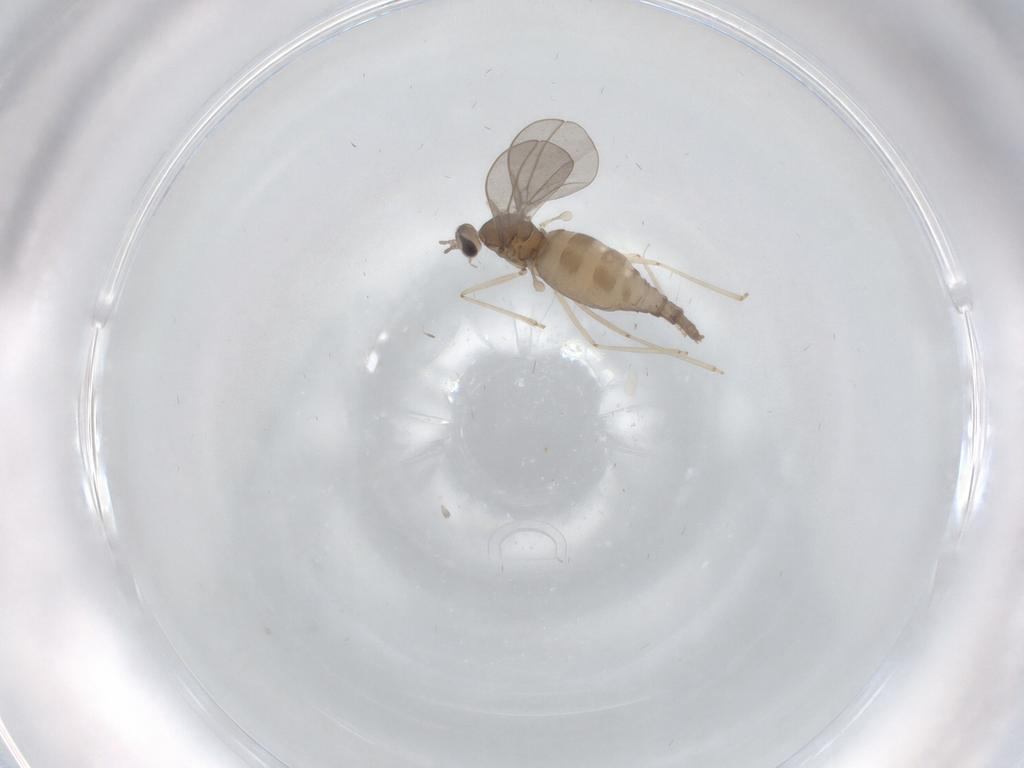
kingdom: Animalia
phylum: Arthropoda
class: Insecta
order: Diptera
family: Cecidomyiidae
